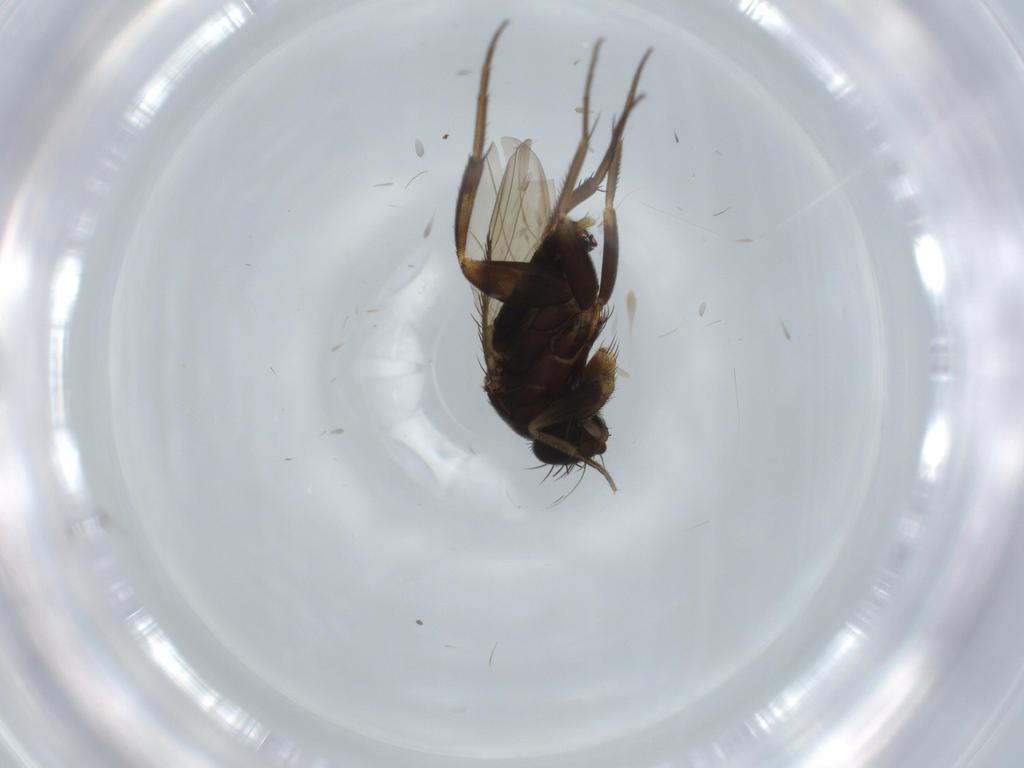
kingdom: Animalia
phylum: Arthropoda
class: Insecta
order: Diptera
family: Phoridae
